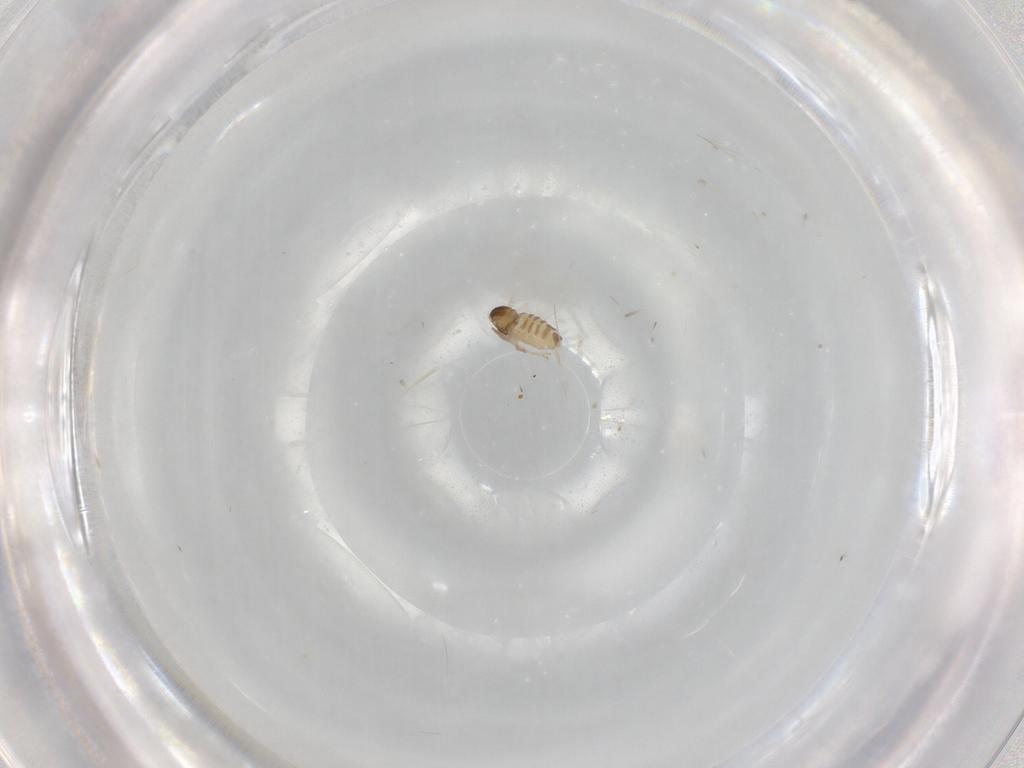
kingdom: Animalia
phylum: Arthropoda
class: Insecta
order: Diptera
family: Cecidomyiidae
